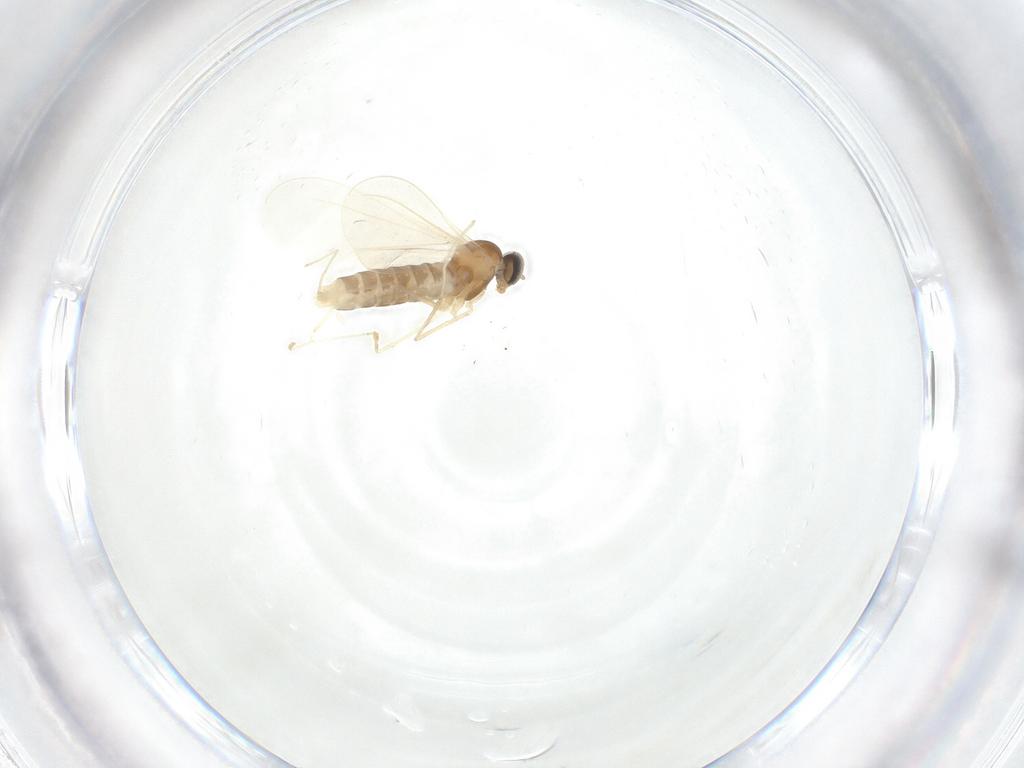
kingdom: Animalia
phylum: Arthropoda
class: Insecta
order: Diptera
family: Cecidomyiidae
